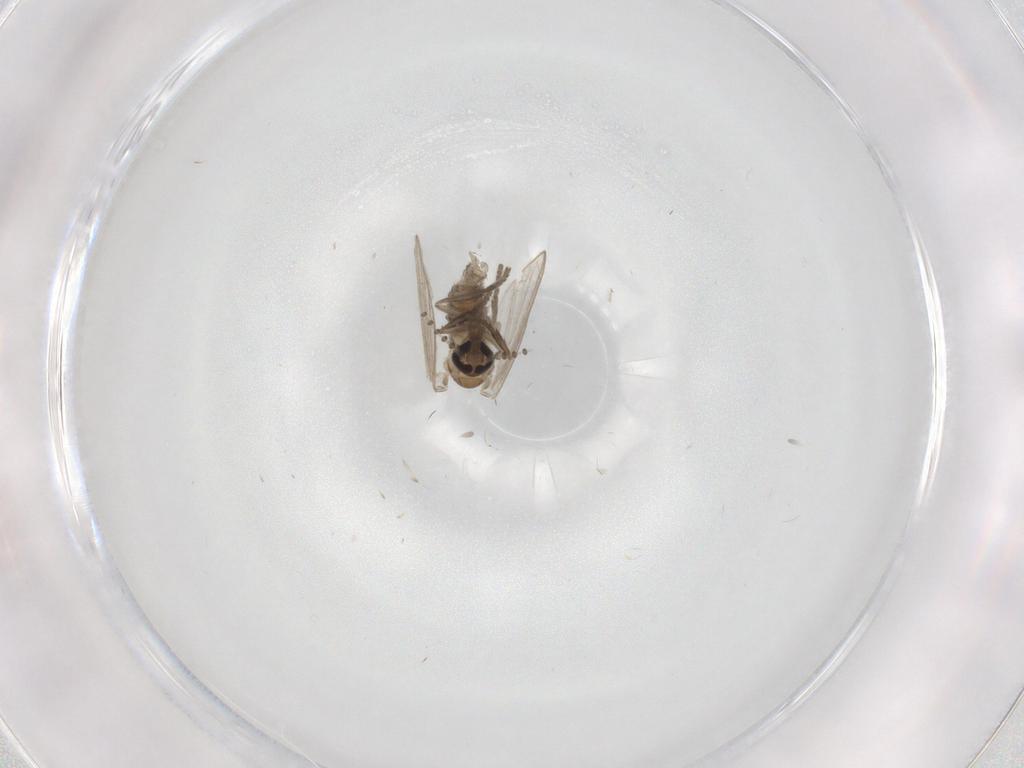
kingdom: Animalia
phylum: Arthropoda
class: Insecta
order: Diptera
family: Psychodidae
